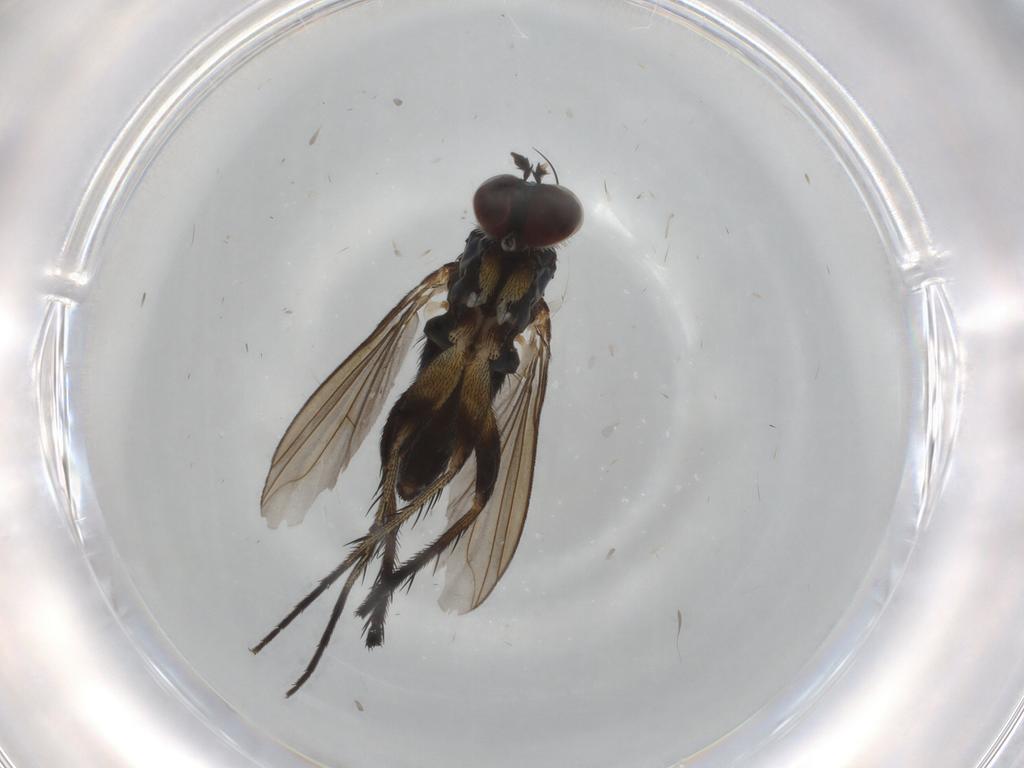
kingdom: Animalia
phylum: Arthropoda
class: Insecta
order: Diptera
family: Dolichopodidae
